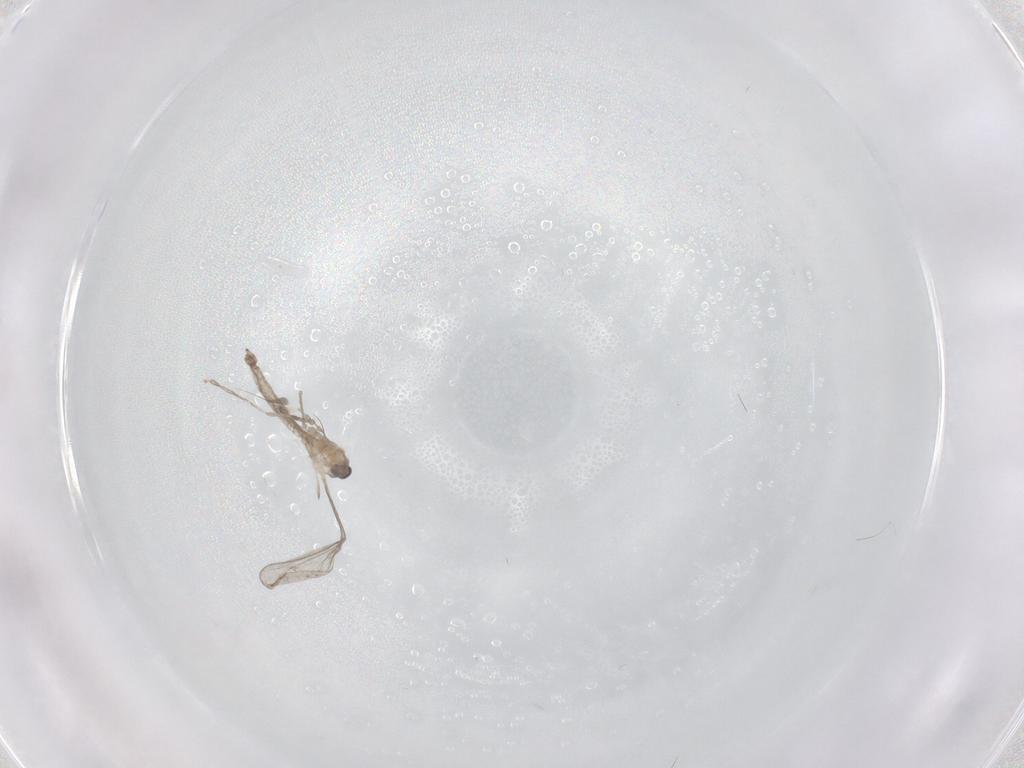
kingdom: Animalia
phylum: Arthropoda
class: Insecta
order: Diptera
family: Cecidomyiidae
